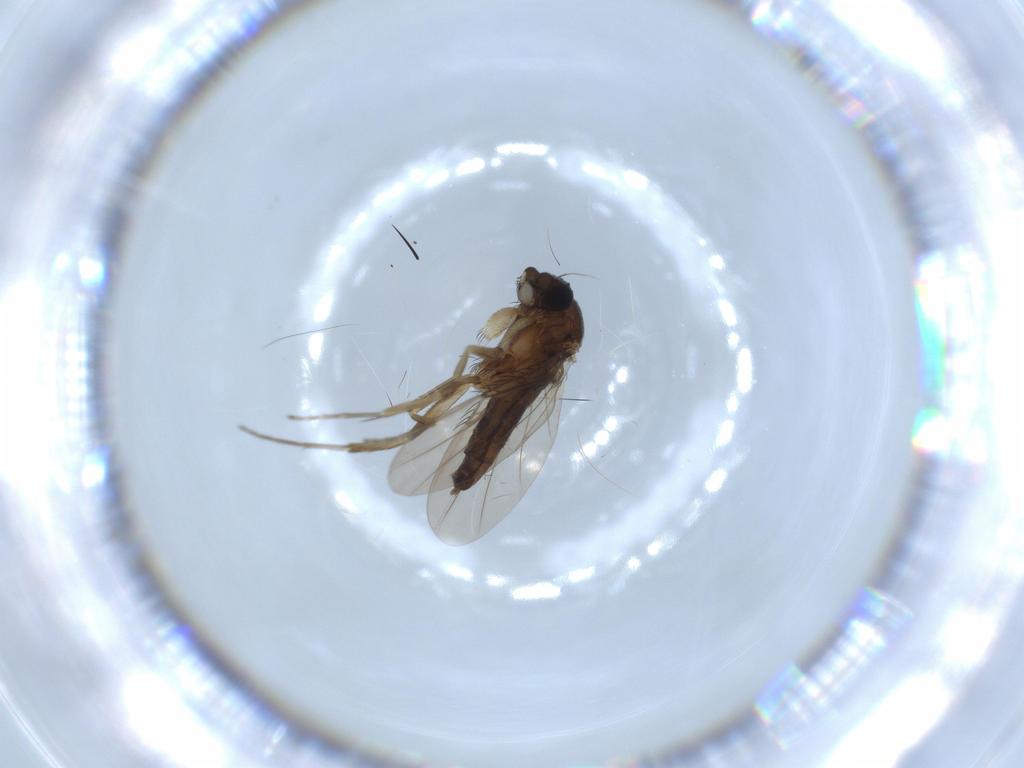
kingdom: Animalia
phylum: Arthropoda
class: Insecta
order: Diptera
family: Phoridae
